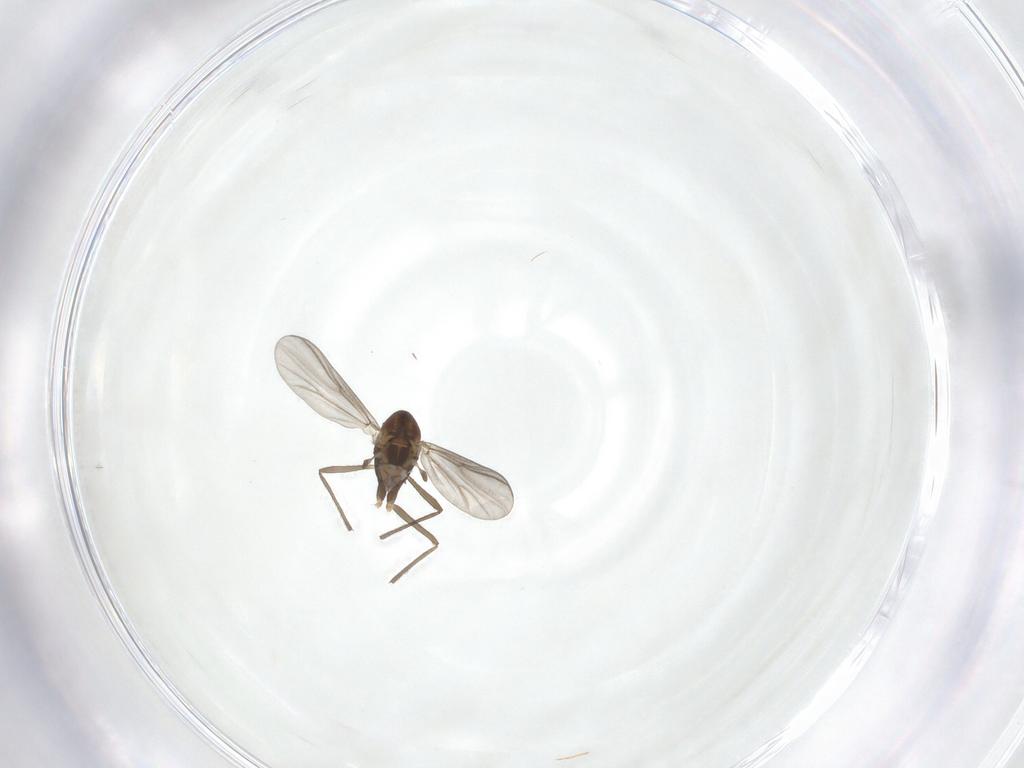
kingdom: Animalia
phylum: Arthropoda
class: Insecta
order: Diptera
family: Chironomidae
